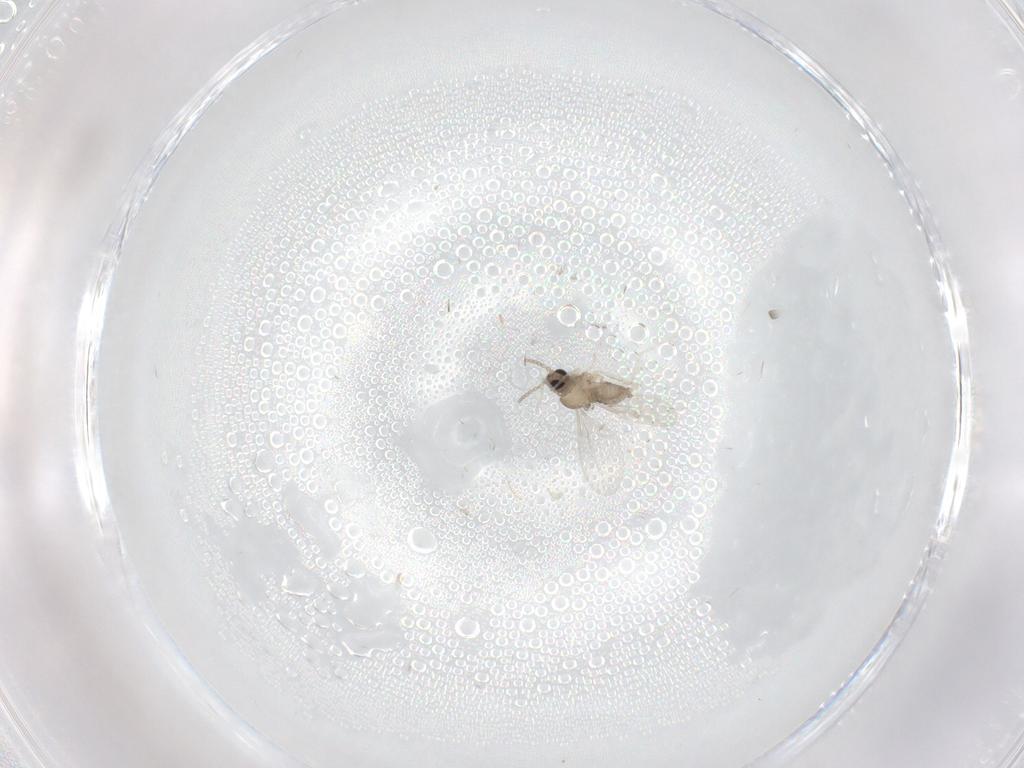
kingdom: Animalia
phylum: Arthropoda
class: Insecta
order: Diptera
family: Cecidomyiidae
